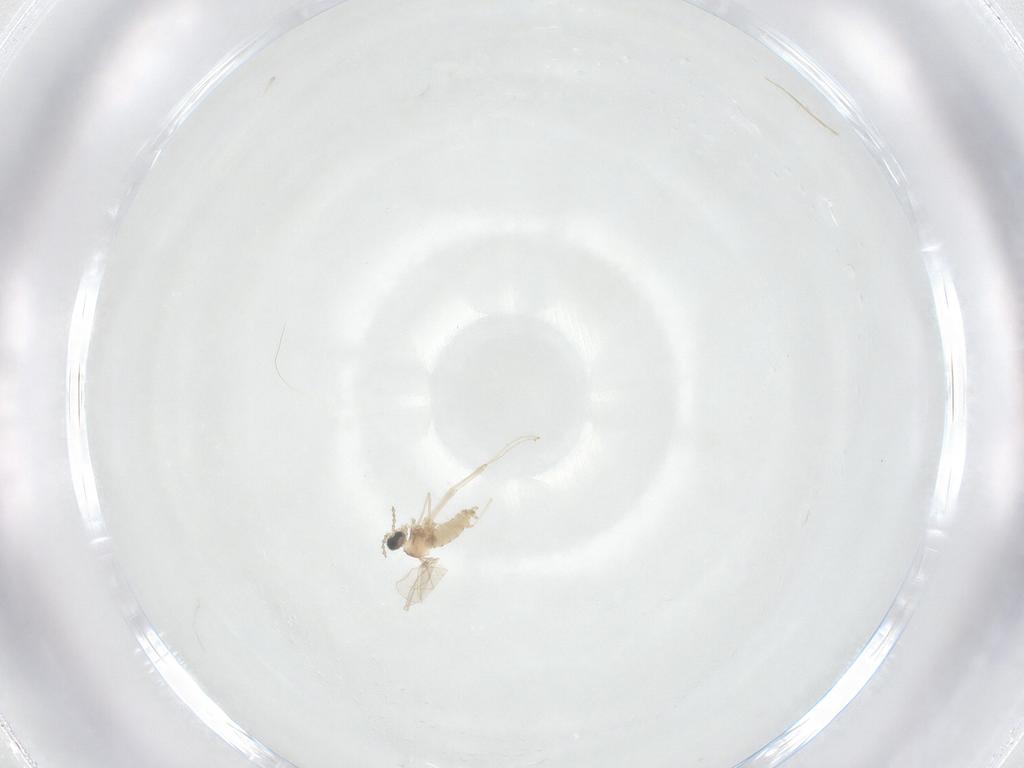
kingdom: Animalia
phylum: Arthropoda
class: Insecta
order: Diptera
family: Cecidomyiidae
